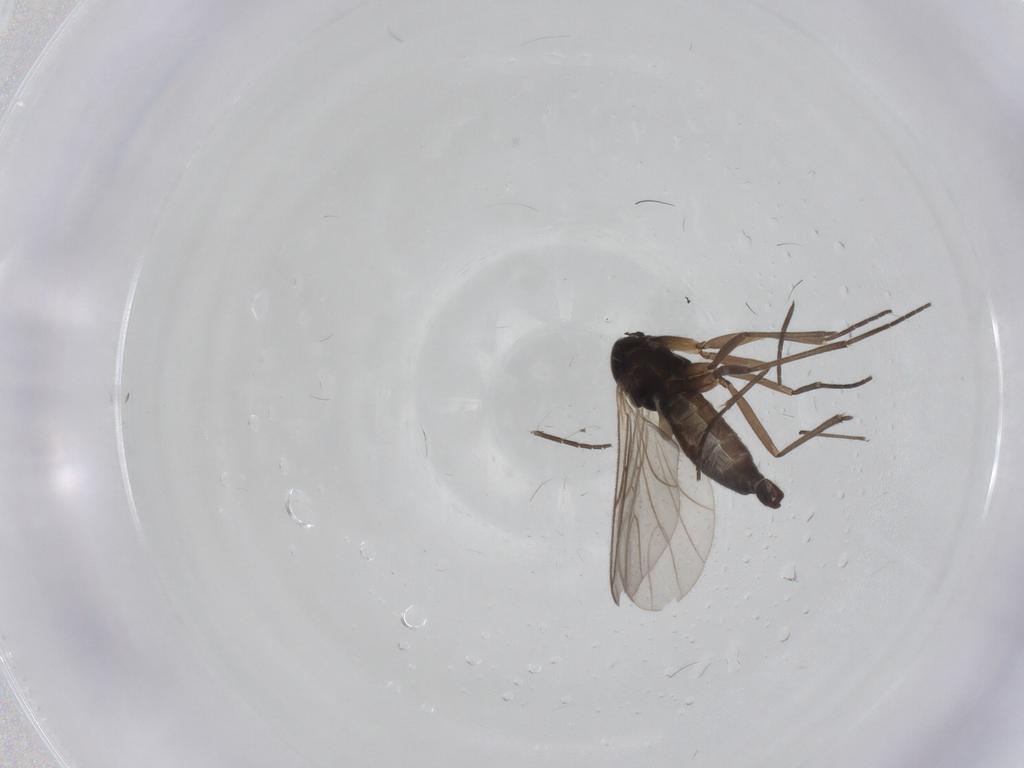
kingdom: Animalia
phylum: Arthropoda
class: Insecta
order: Diptera
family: Sciaridae
